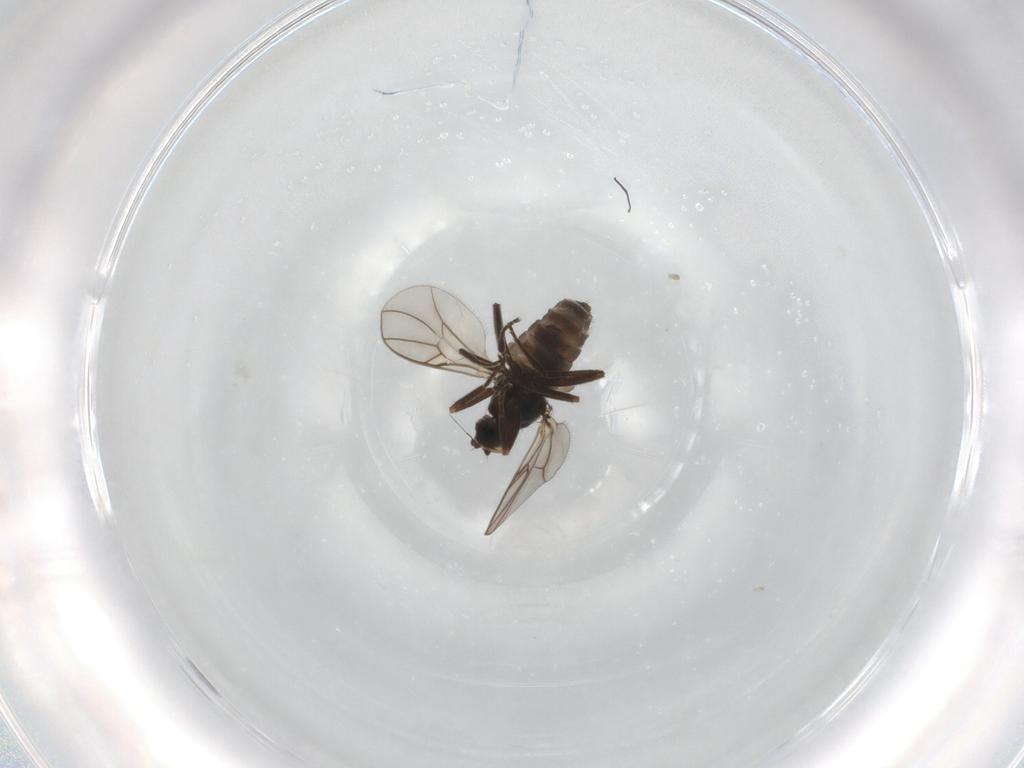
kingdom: Animalia
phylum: Arthropoda
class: Insecta
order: Diptera
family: Hybotidae
